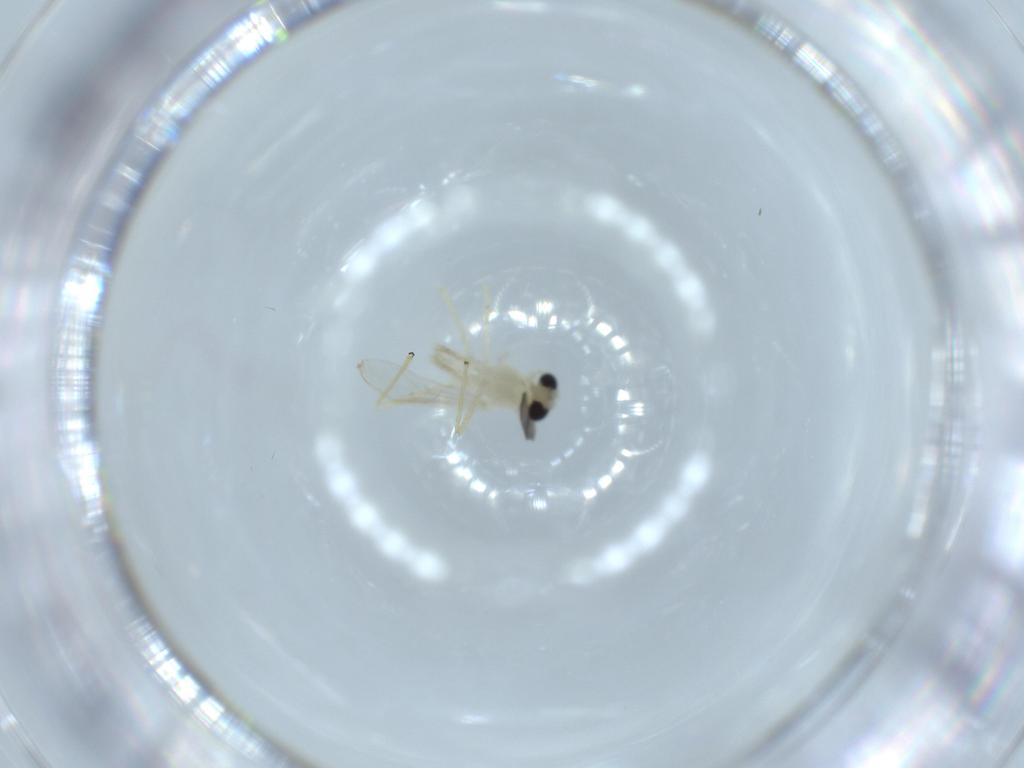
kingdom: Animalia
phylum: Arthropoda
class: Insecta
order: Diptera
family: Chironomidae
